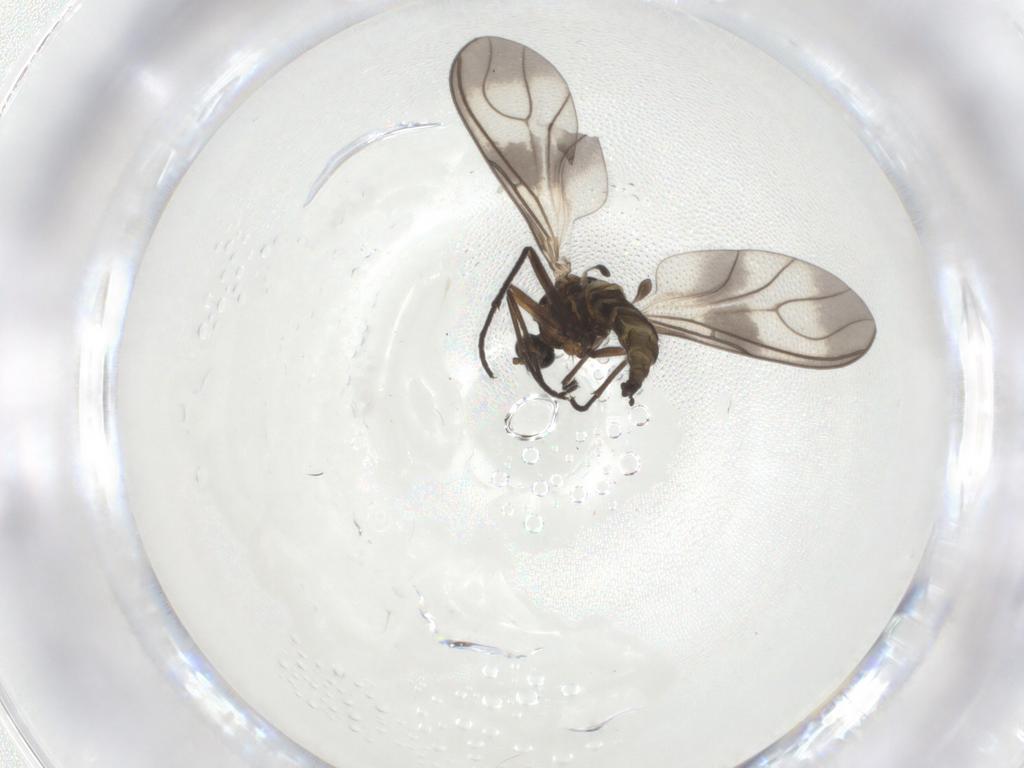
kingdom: Animalia
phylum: Arthropoda
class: Insecta
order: Diptera
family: Sciaridae
